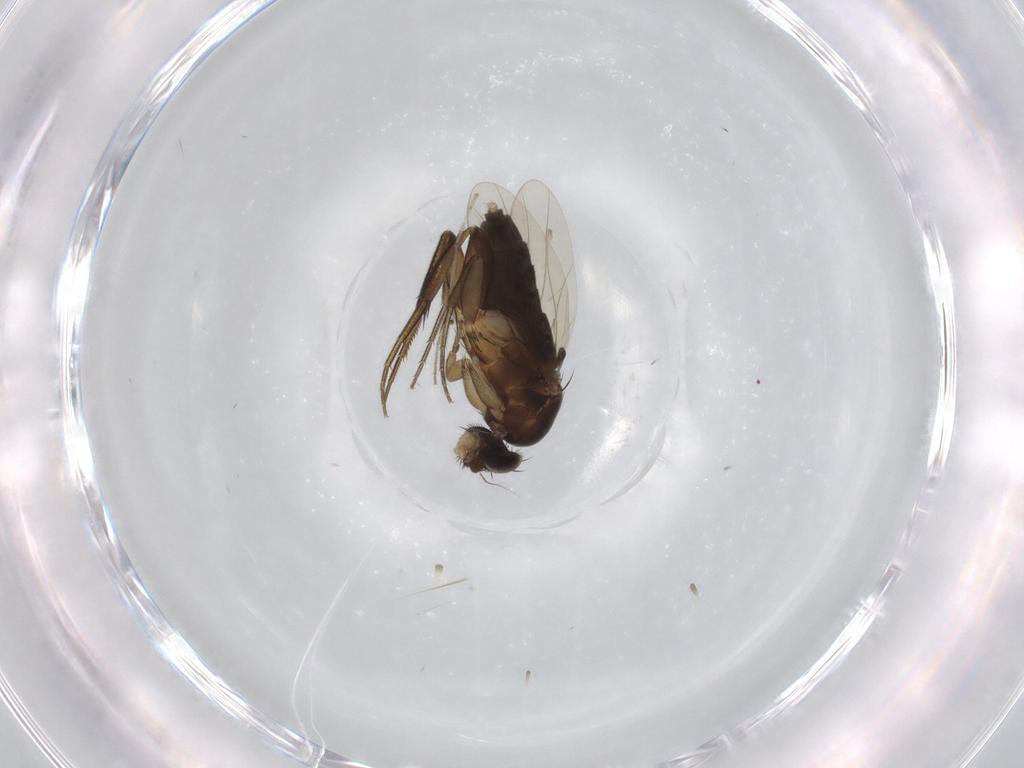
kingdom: Animalia
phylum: Arthropoda
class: Insecta
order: Diptera
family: Phoridae
